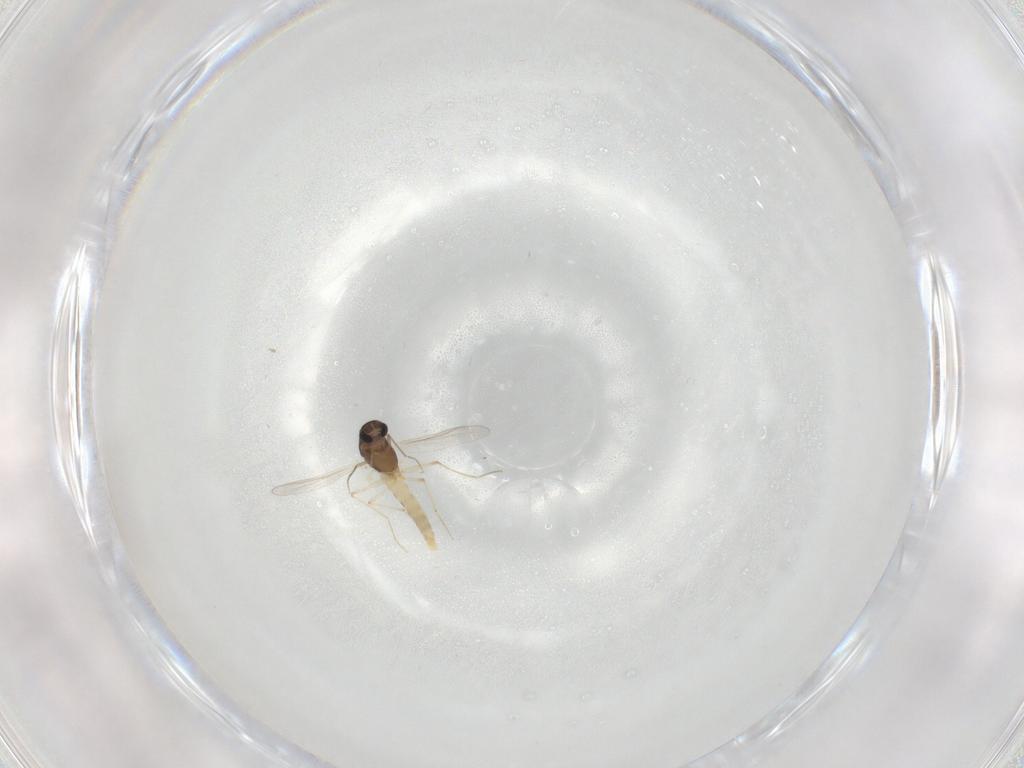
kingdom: Animalia
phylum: Arthropoda
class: Insecta
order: Diptera
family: Chironomidae
